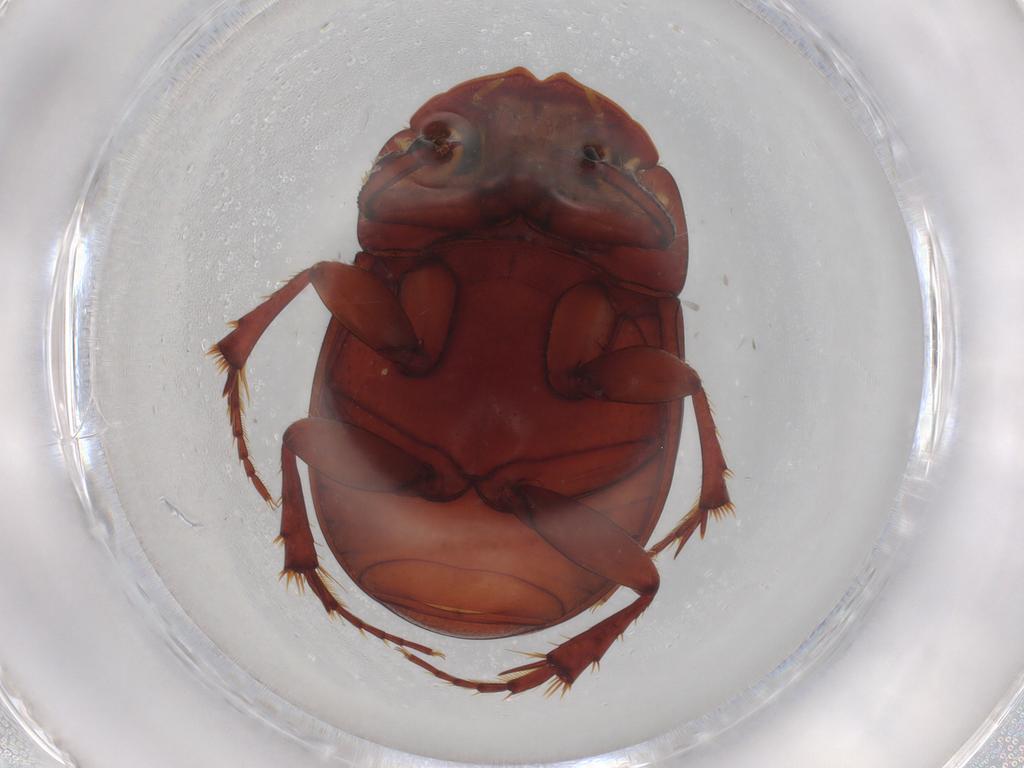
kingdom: Animalia
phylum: Arthropoda
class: Insecta
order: Coleoptera
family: Scarabaeidae
